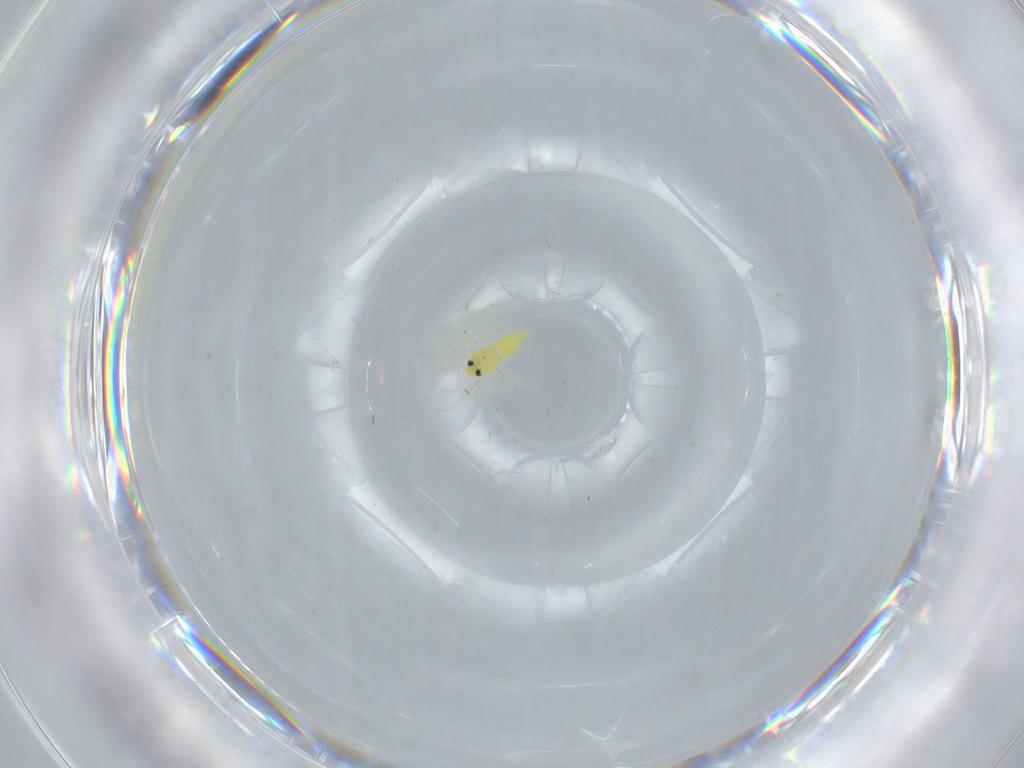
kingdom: Animalia
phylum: Arthropoda
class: Insecta
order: Hemiptera
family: Aleyrodidae
